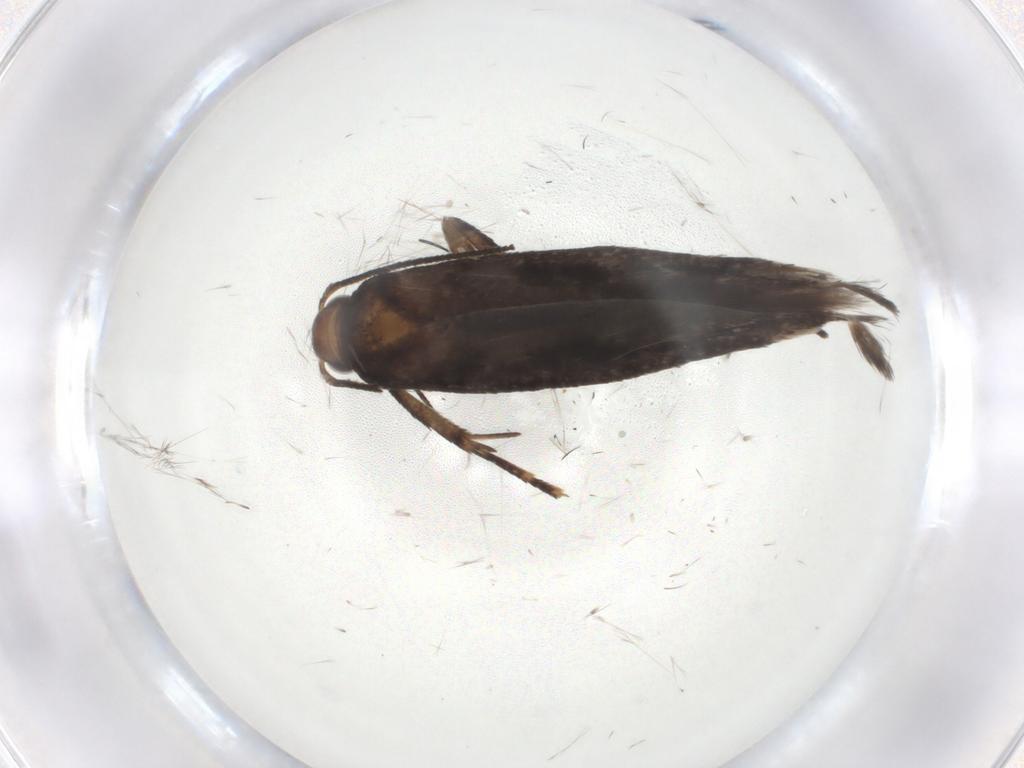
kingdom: Animalia
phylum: Arthropoda
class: Insecta
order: Lepidoptera
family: Gelechiidae
